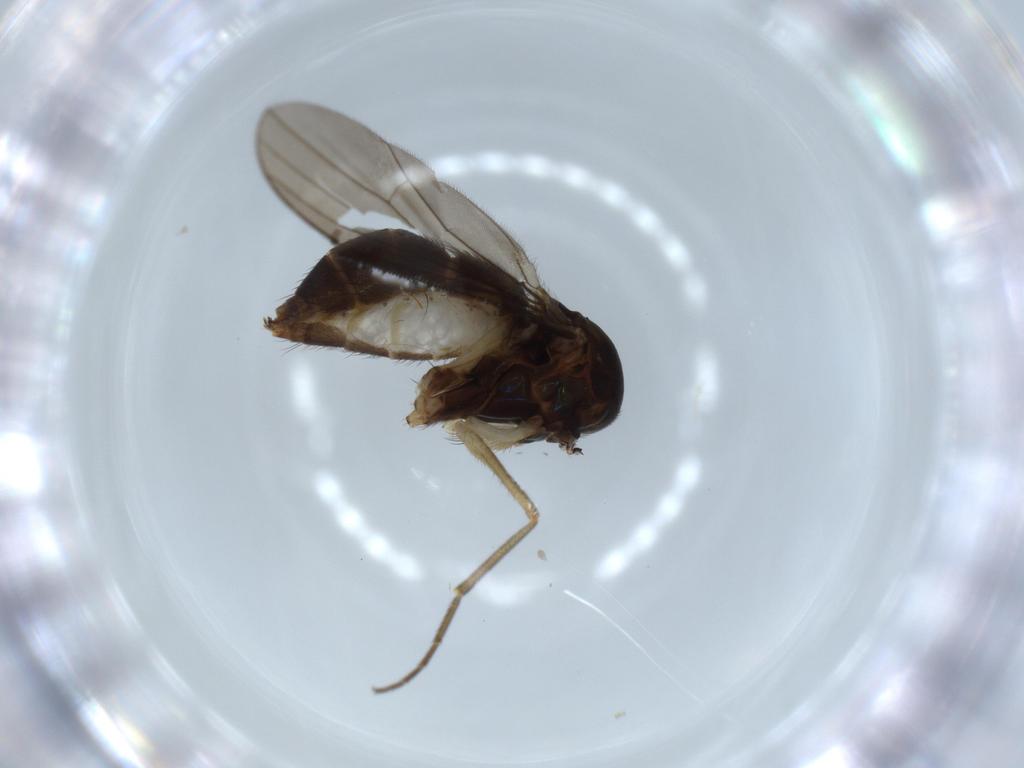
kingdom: Animalia
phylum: Arthropoda
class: Insecta
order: Diptera
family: Dolichopodidae
